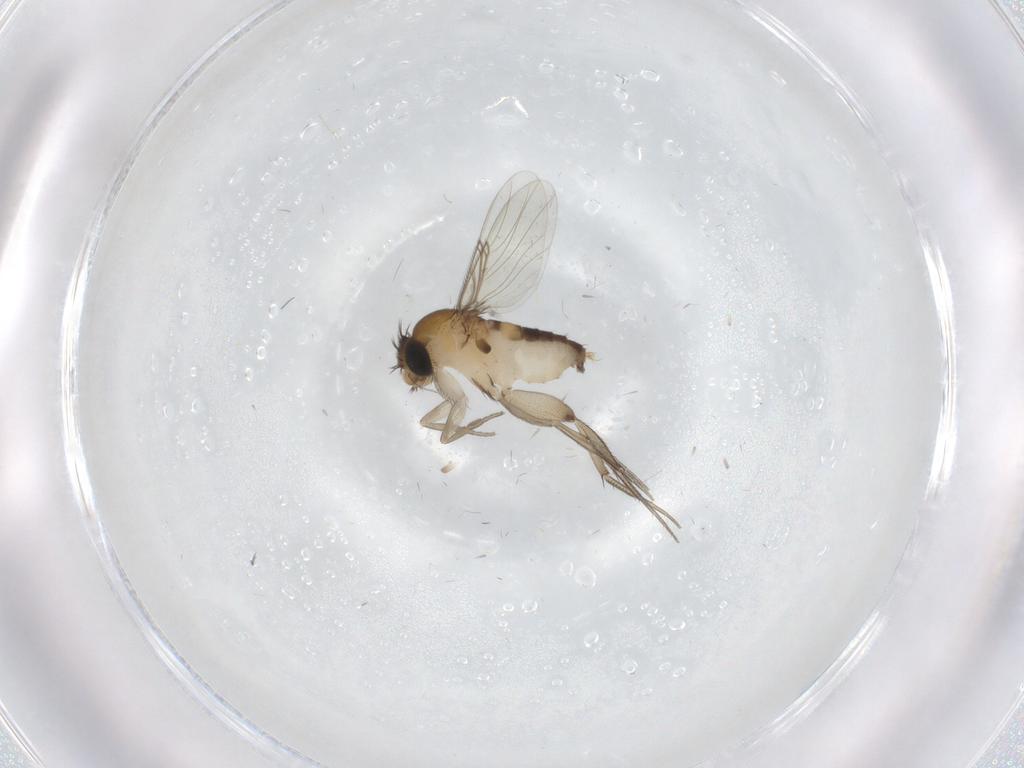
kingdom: Animalia
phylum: Arthropoda
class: Insecta
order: Diptera
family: Phoridae
